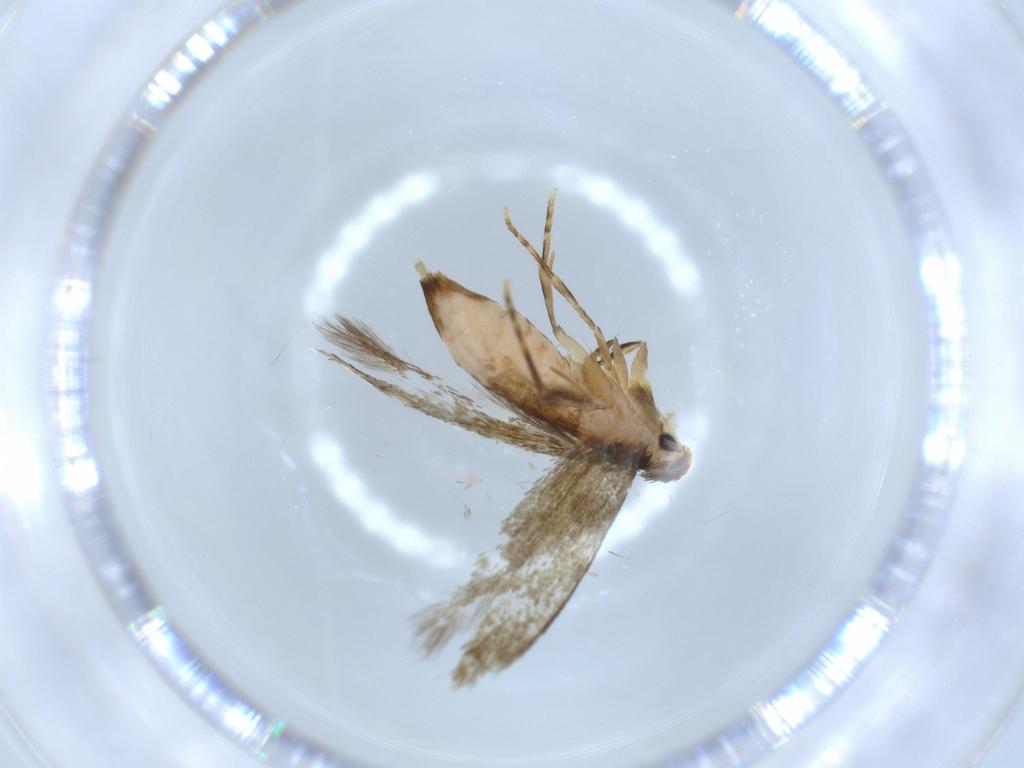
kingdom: Animalia
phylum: Arthropoda
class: Insecta
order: Lepidoptera
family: Tineidae
